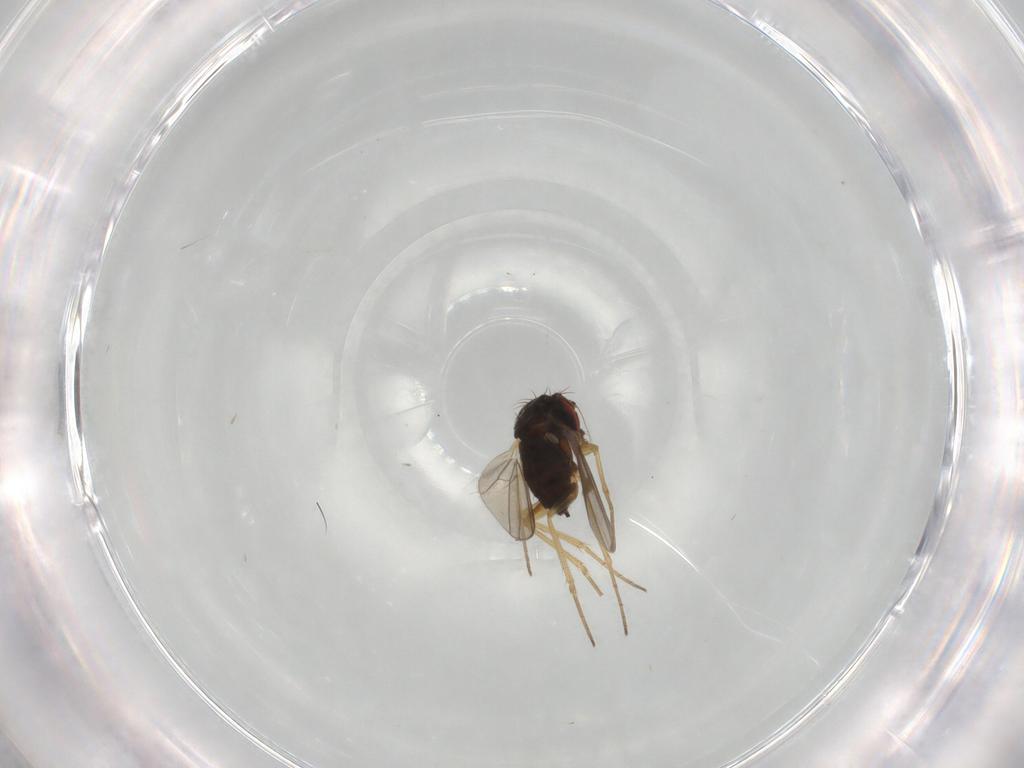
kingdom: Animalia
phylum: Arthropoda
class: Insecta
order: Diptera
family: Dolichopodidae
